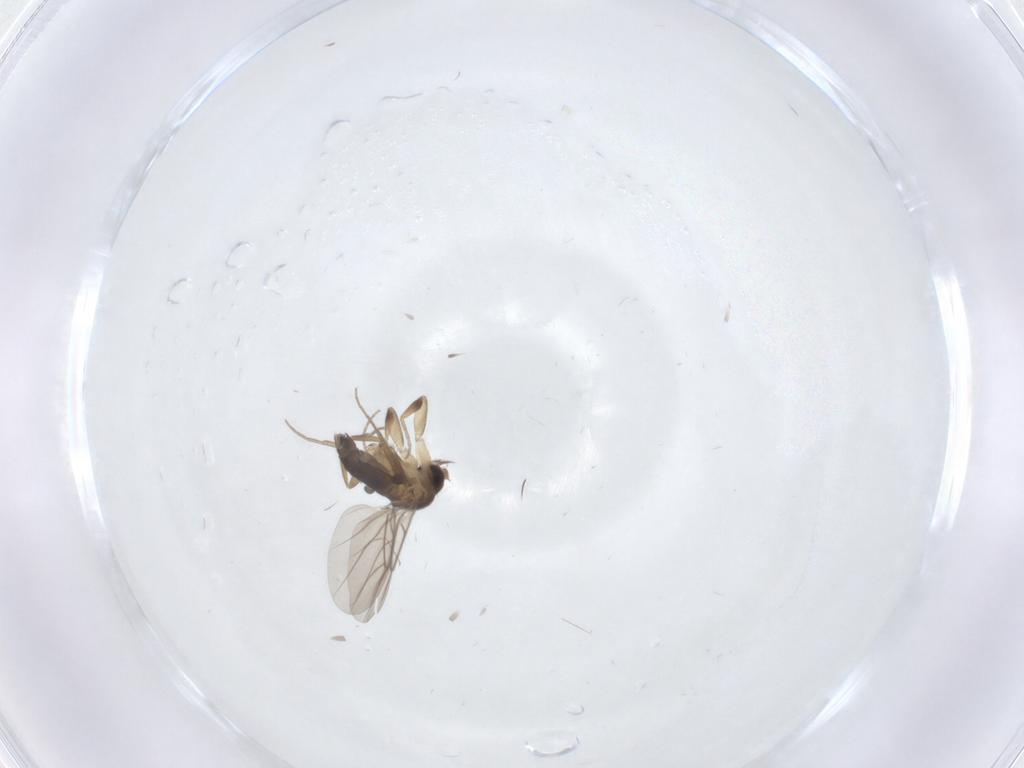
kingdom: Animalia
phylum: Arthropoda
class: Insecta
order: Diptera
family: Phoridae
